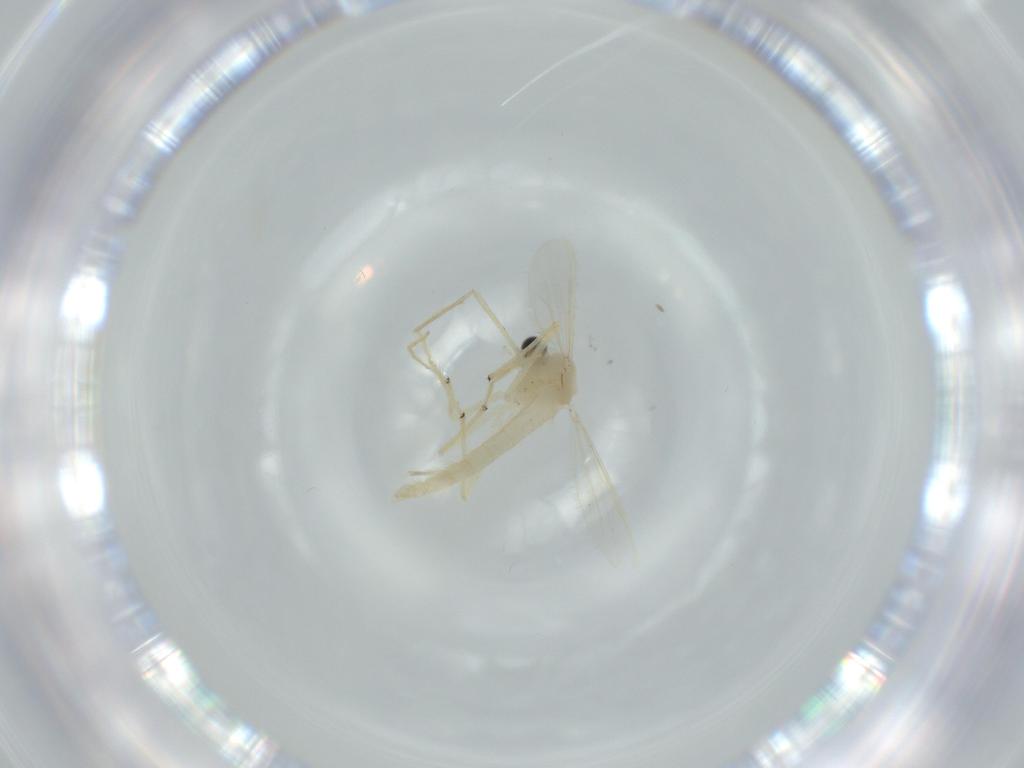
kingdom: Animalia
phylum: Arthropoda
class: Insecta
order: Diptera
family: Chironomidae
